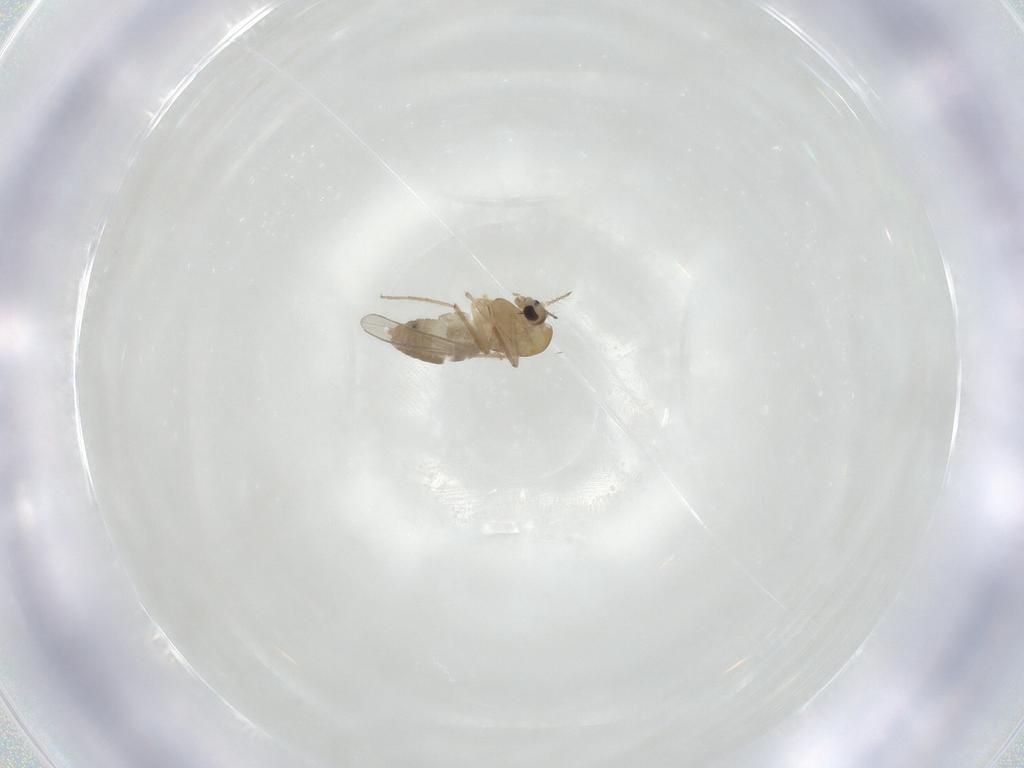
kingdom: Animalia
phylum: Arthropoda
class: Insecta
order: Diptera
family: Chironomidae
